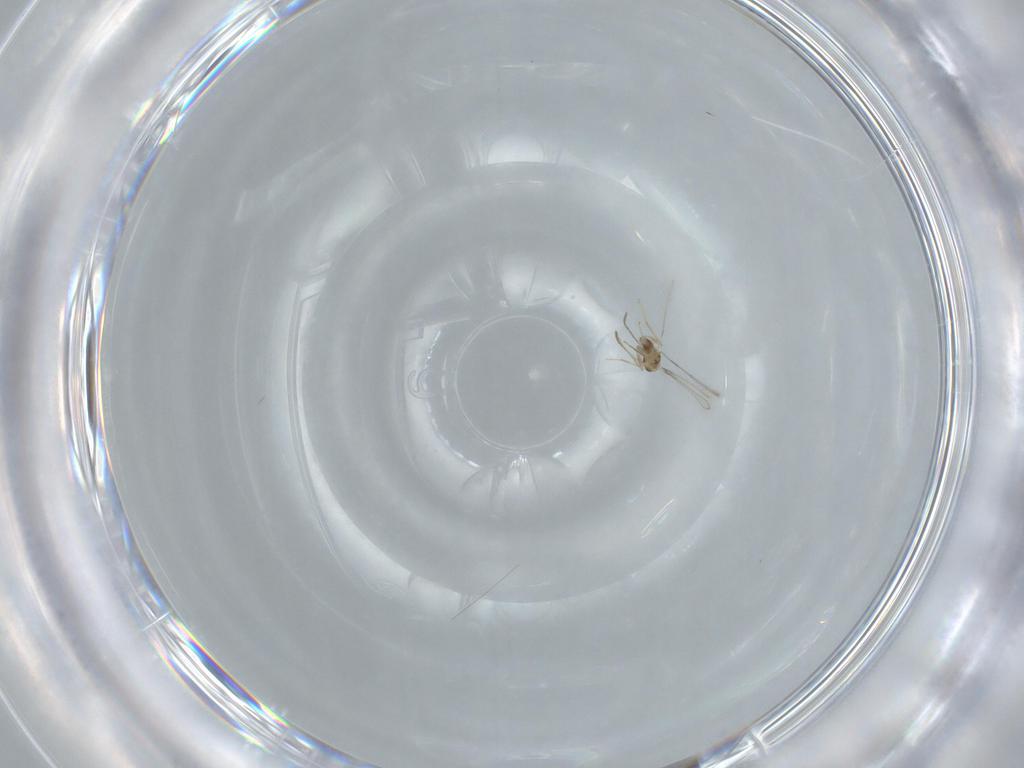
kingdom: Animalia
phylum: Arthropoda
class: Insecta
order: Hymenoptera
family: Mymaridae
